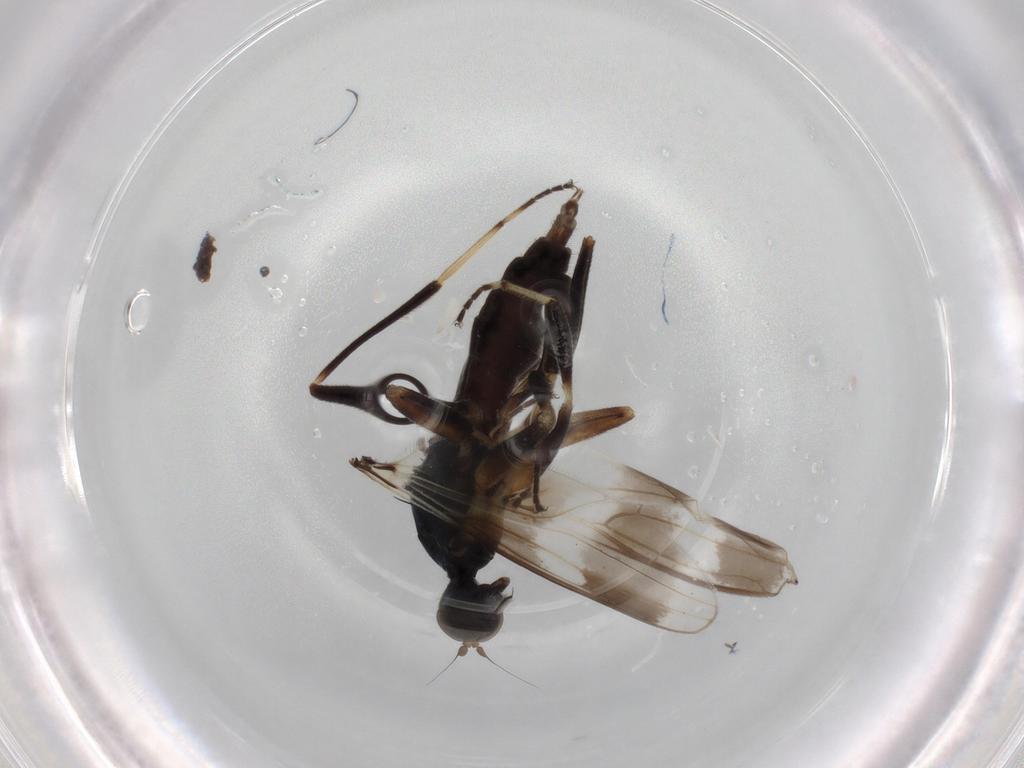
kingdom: Animalia
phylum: Arthropoda
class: Insecta
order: Diptera
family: Hybotidae
